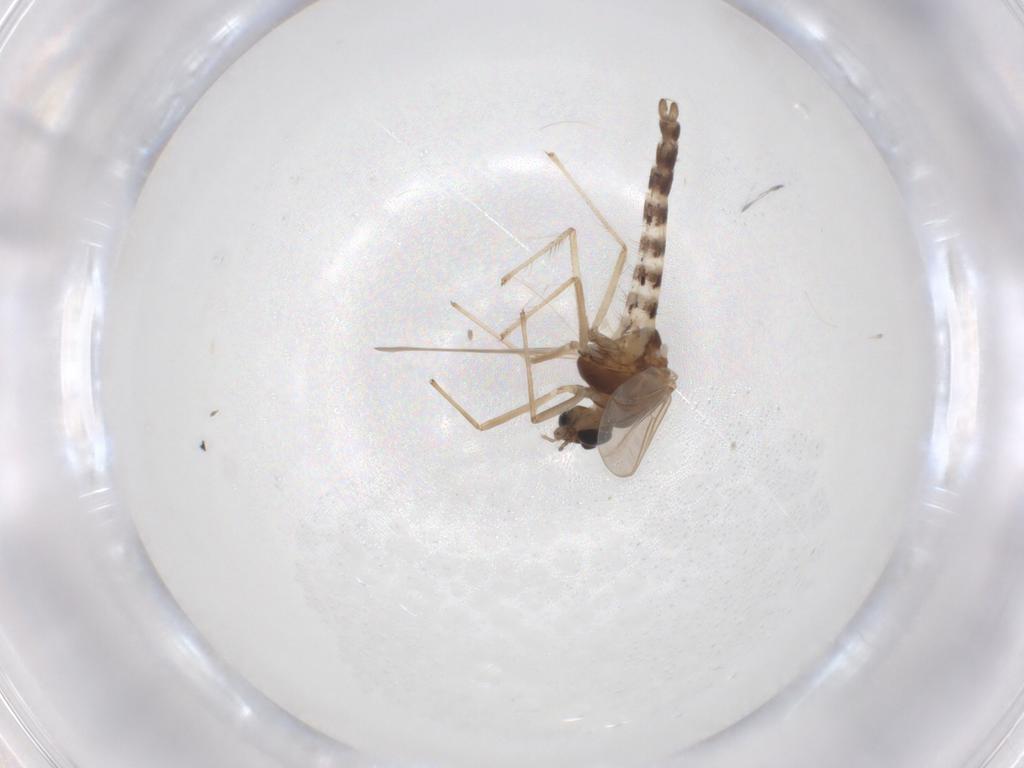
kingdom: Animalia
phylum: Arthropoda
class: Insecta
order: Diptera
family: Chironomidae
